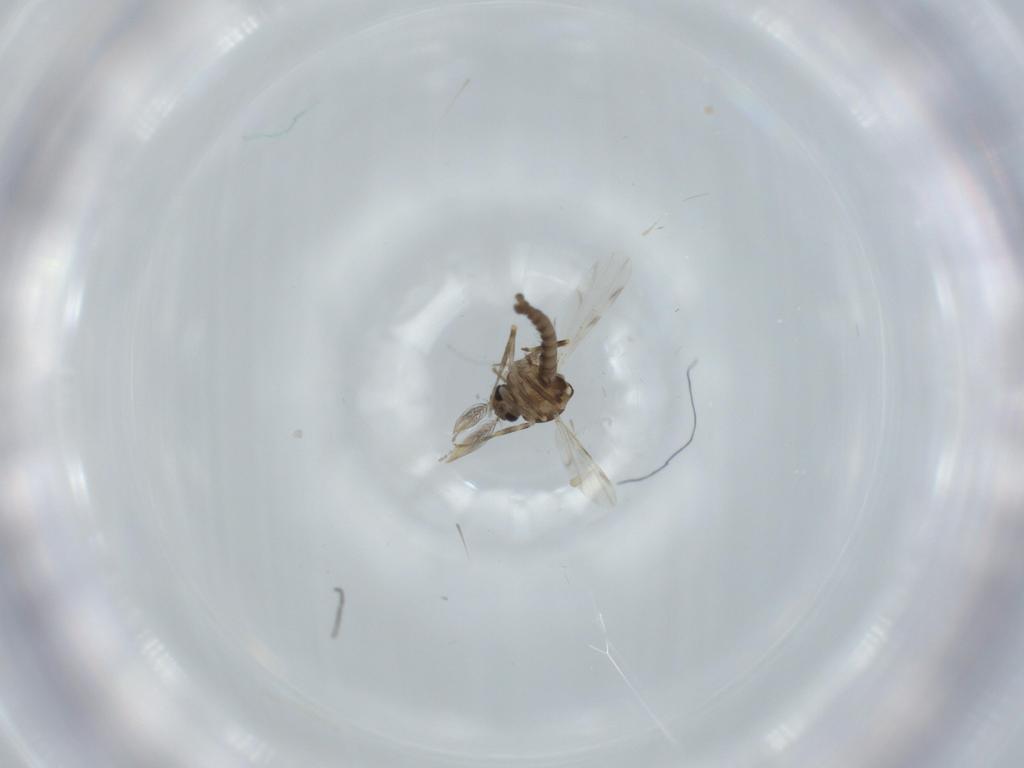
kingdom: Animalia
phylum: Arthropoda
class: Insecta
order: Diptera
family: Ceratopogonidae
